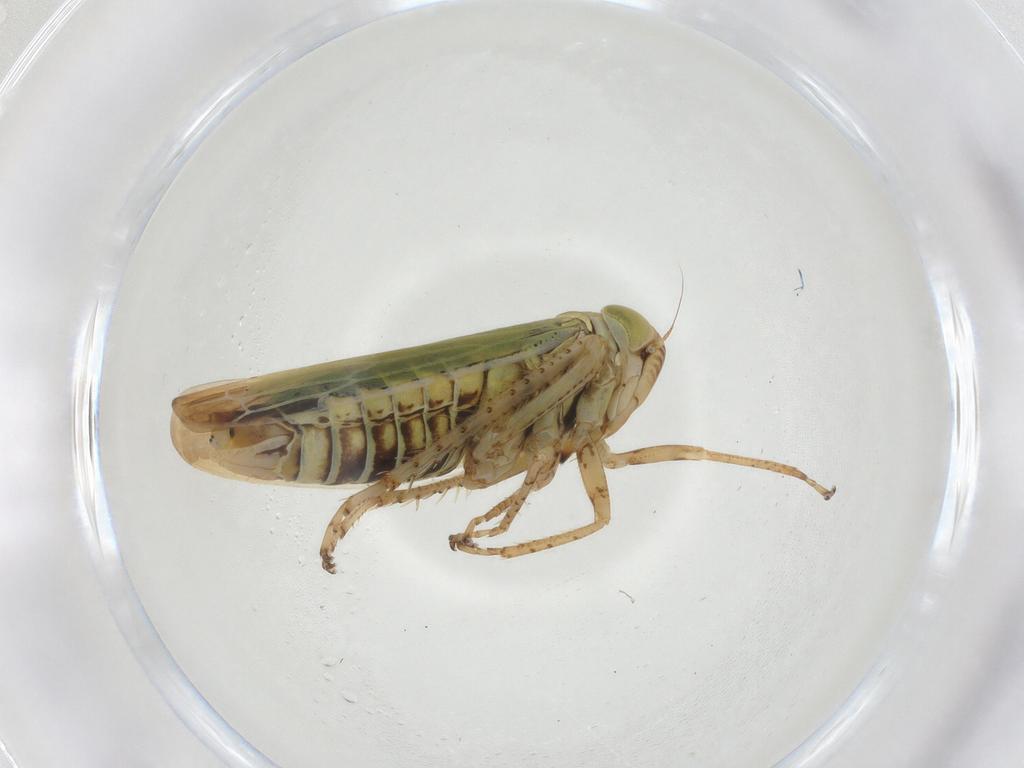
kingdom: Animalia
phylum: Arthropoda
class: Insecta
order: Hemiptera
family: Cicadellidae
